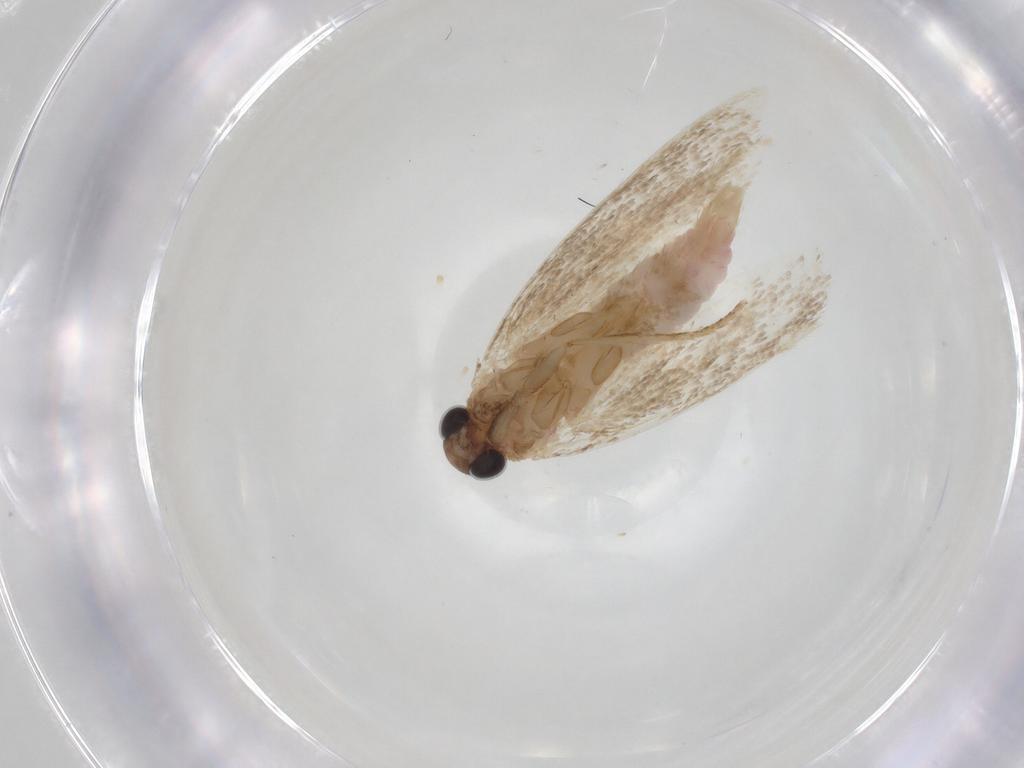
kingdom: Animalia
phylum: Arthropoda
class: Insecta
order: Lepidoptera
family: Autostichidae
